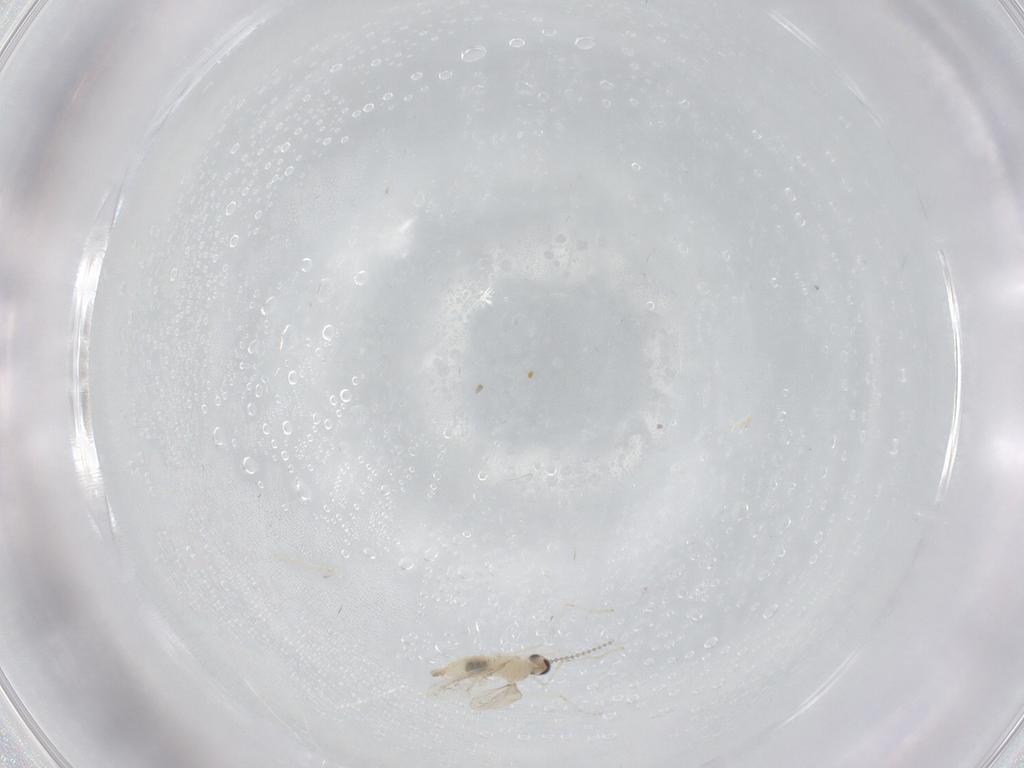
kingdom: Animalia
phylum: Arthropoda
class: Insecta
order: Diptera
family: Cecidomyiidae
